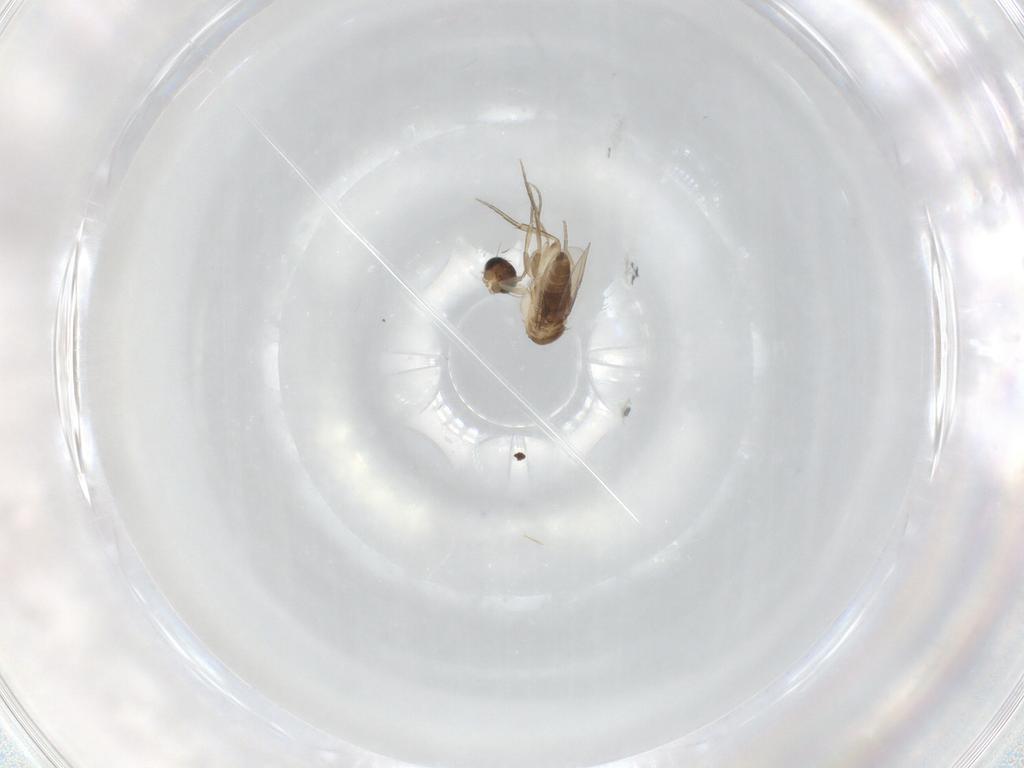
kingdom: Animalia
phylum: Arthropoda
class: Insecta
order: Diptera
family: Phoridae
